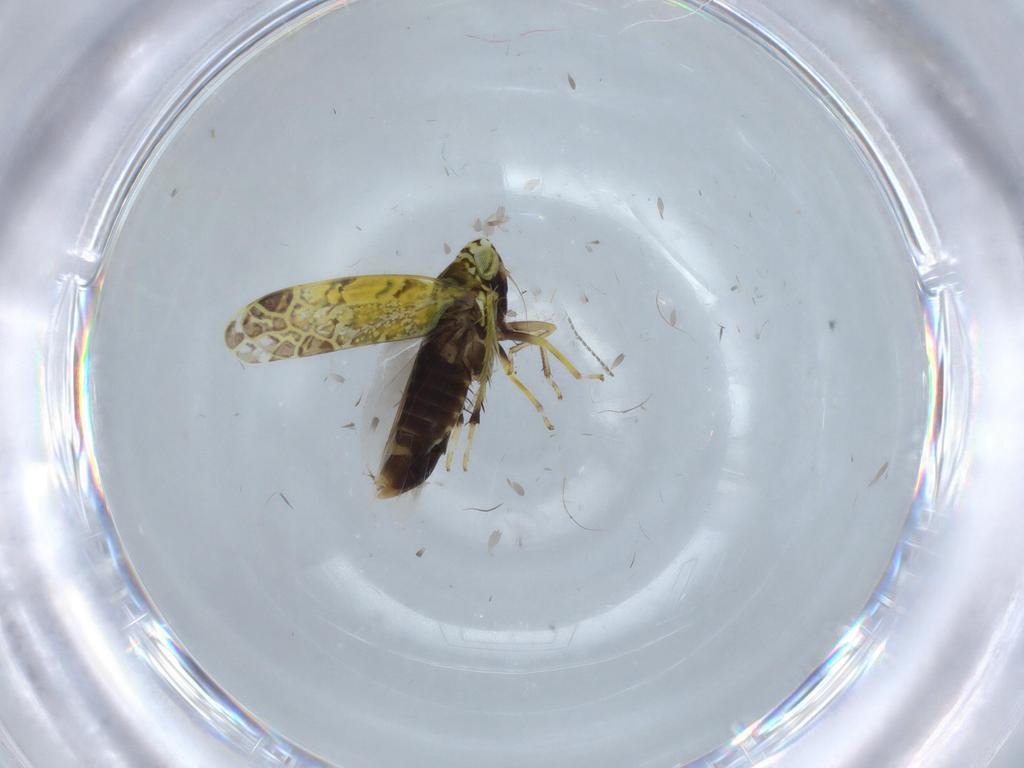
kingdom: Animalia
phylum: Arthropoda
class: Insecta
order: Hemiptera
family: Cicadellidae
